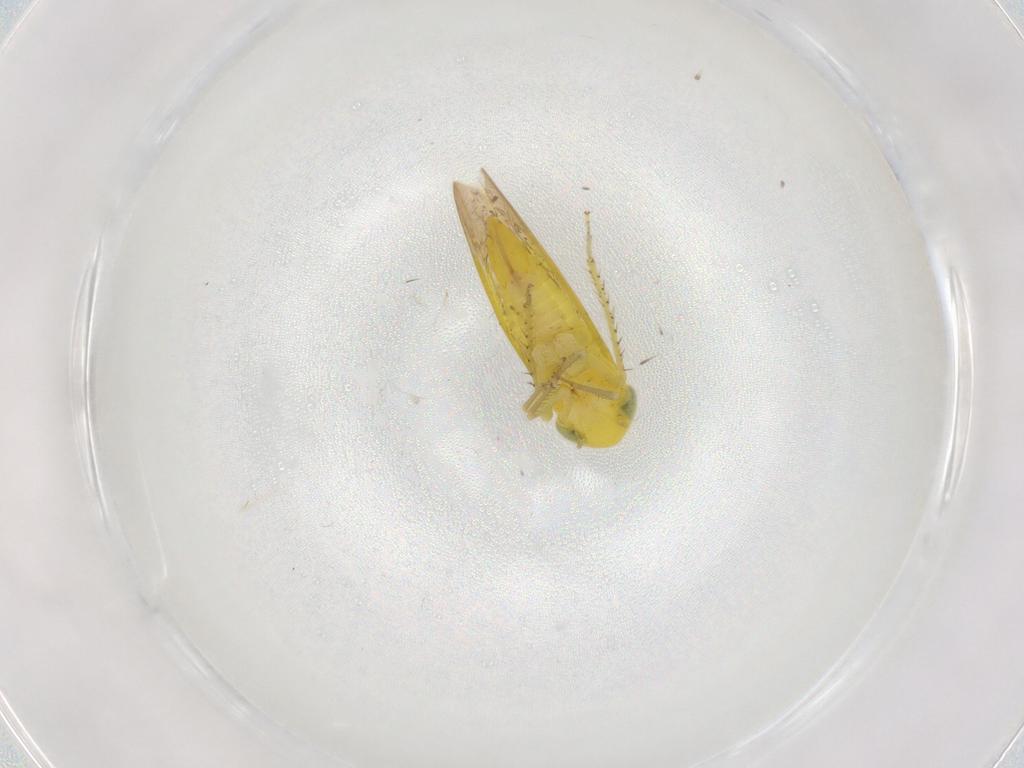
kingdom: Animalia
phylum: Arthropoda
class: Insecta
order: Hemiptera
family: Cicadellidae
